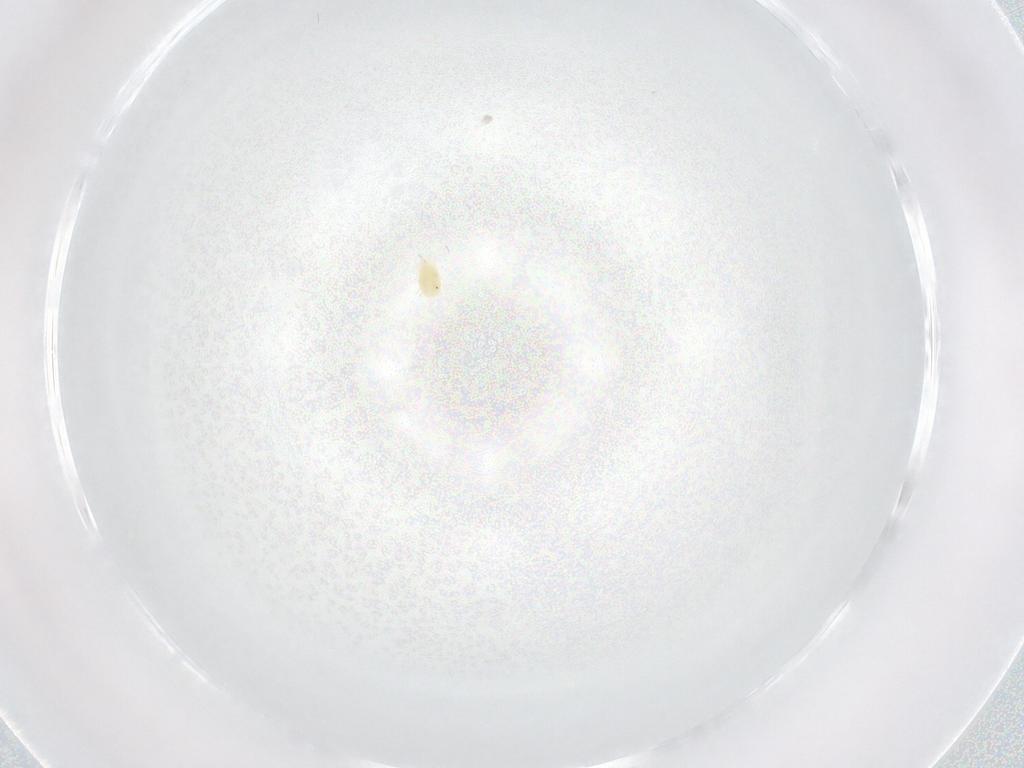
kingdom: Animalia
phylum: Arthropoda
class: Arachnida
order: Trombidiformes
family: Tetranychidae
